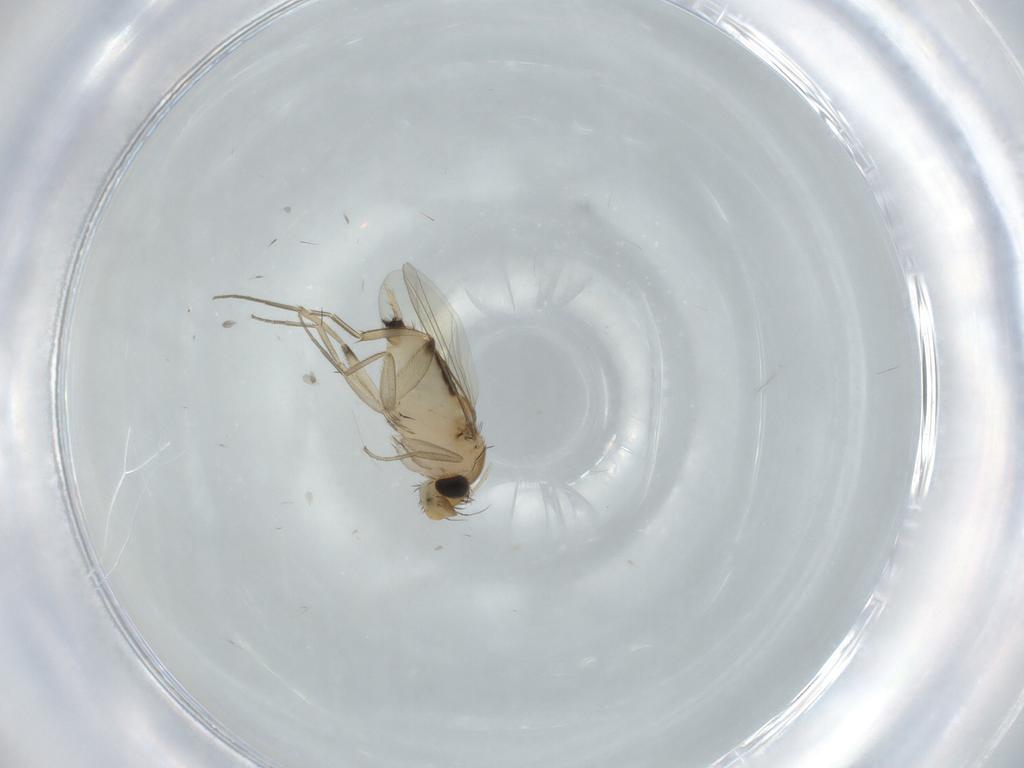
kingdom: Animalia
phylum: Arthropoda
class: Insecta
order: Diptera
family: Phoridae
